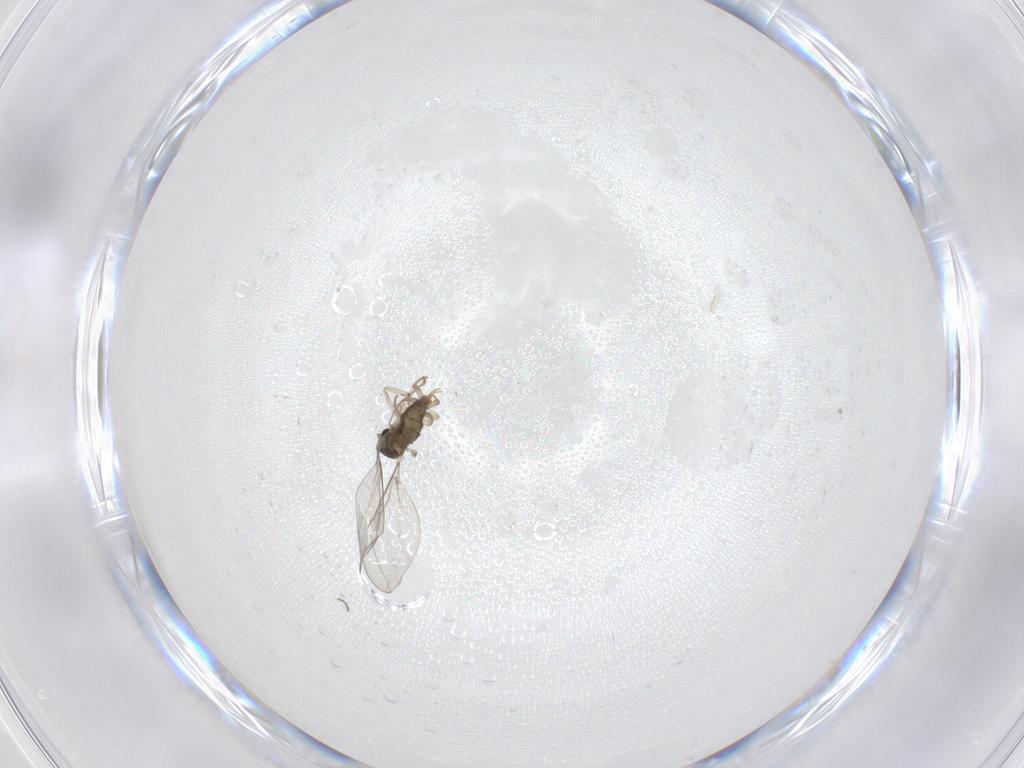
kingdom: Animalia
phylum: Arthropoda
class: Insecta
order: Diptera
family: Cecidomyiidae
